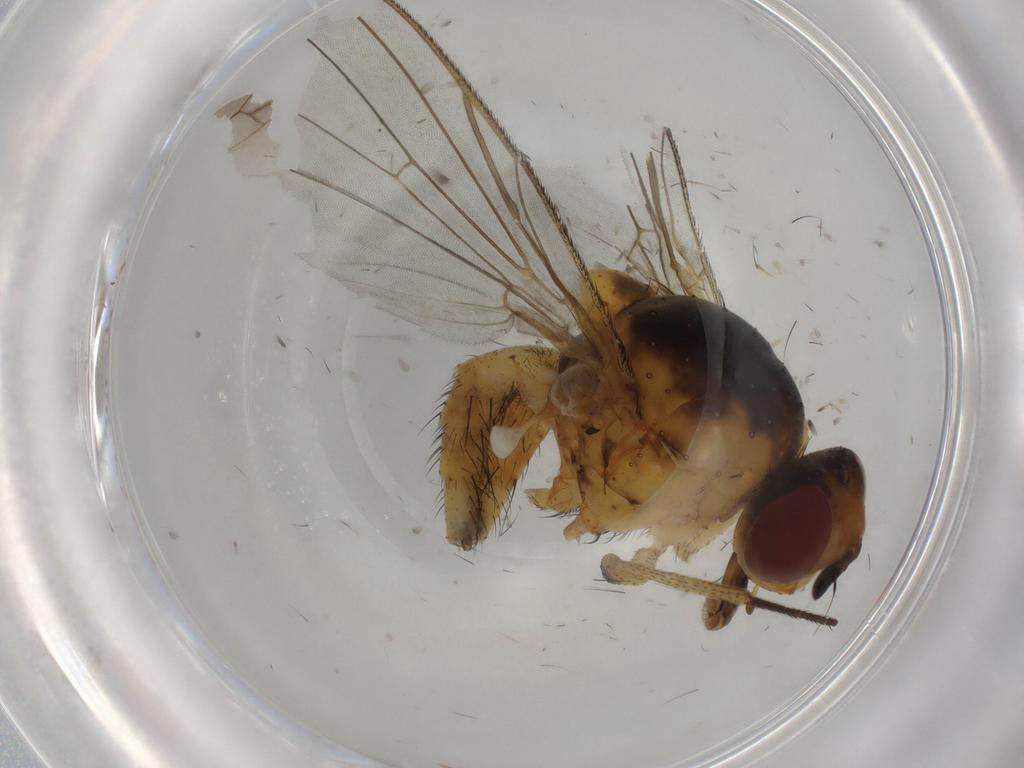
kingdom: Animalia
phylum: Arthropoda
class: Insecta
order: Diptera
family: Anthomyiidae
